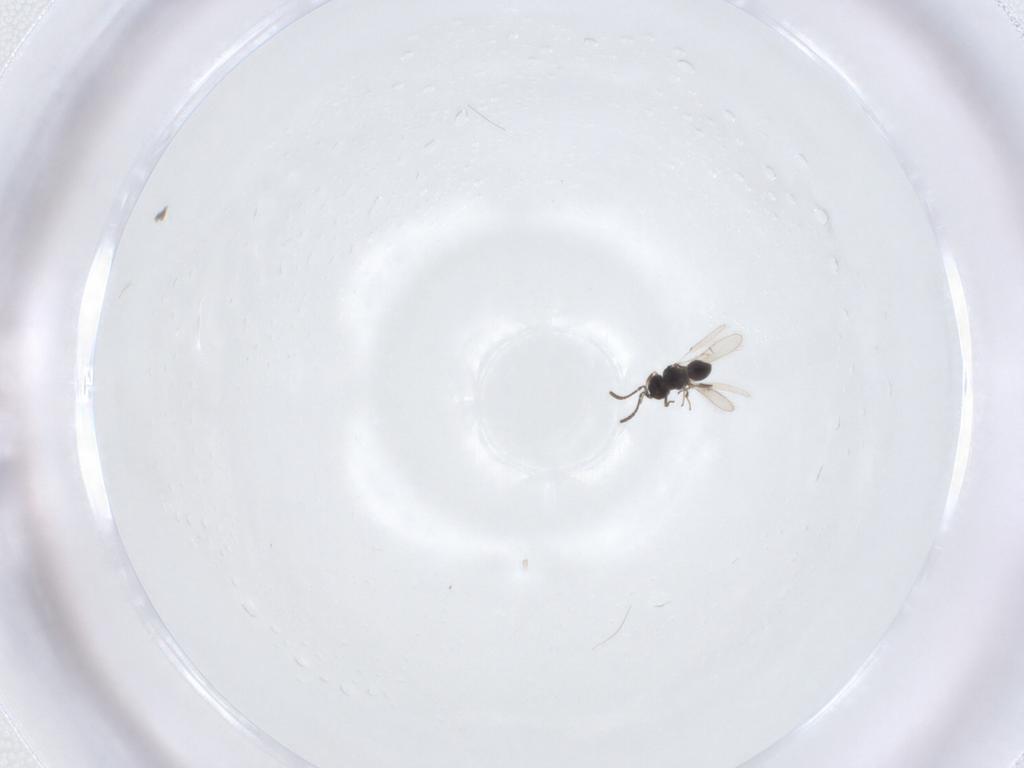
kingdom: Animalia
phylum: Arthropoda
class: Insecta
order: Hymenoptera
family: Scelionidae
